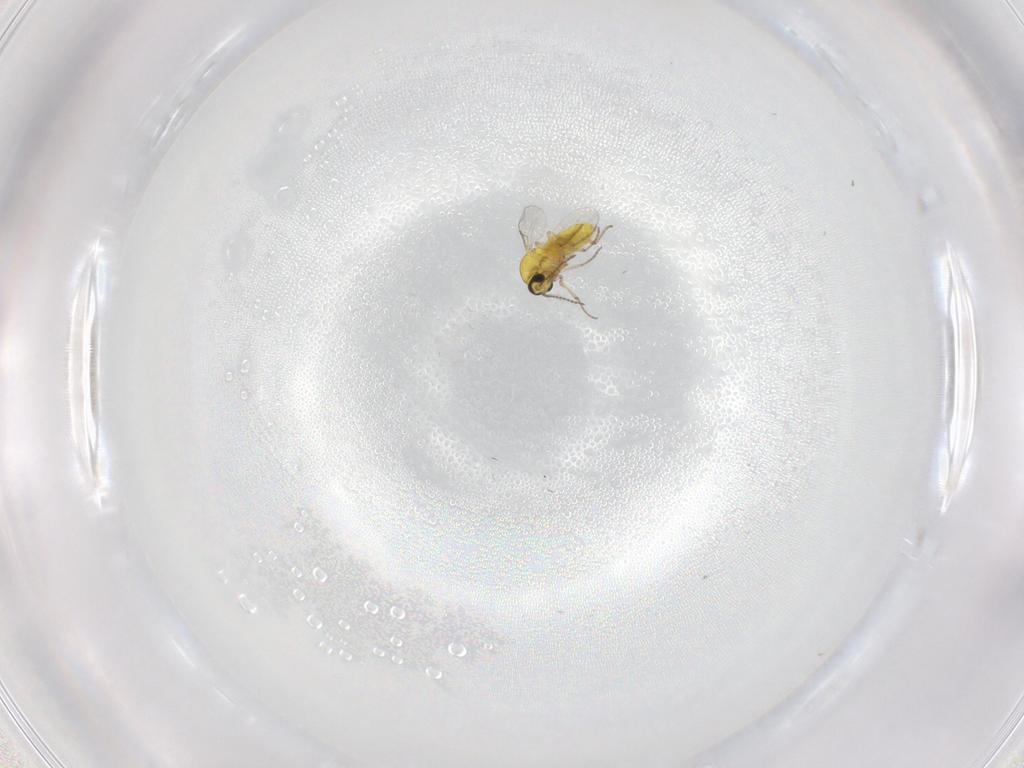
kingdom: Animalia
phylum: Arthropoda
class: Insecta
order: Diptera
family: Ceratopogonidae
